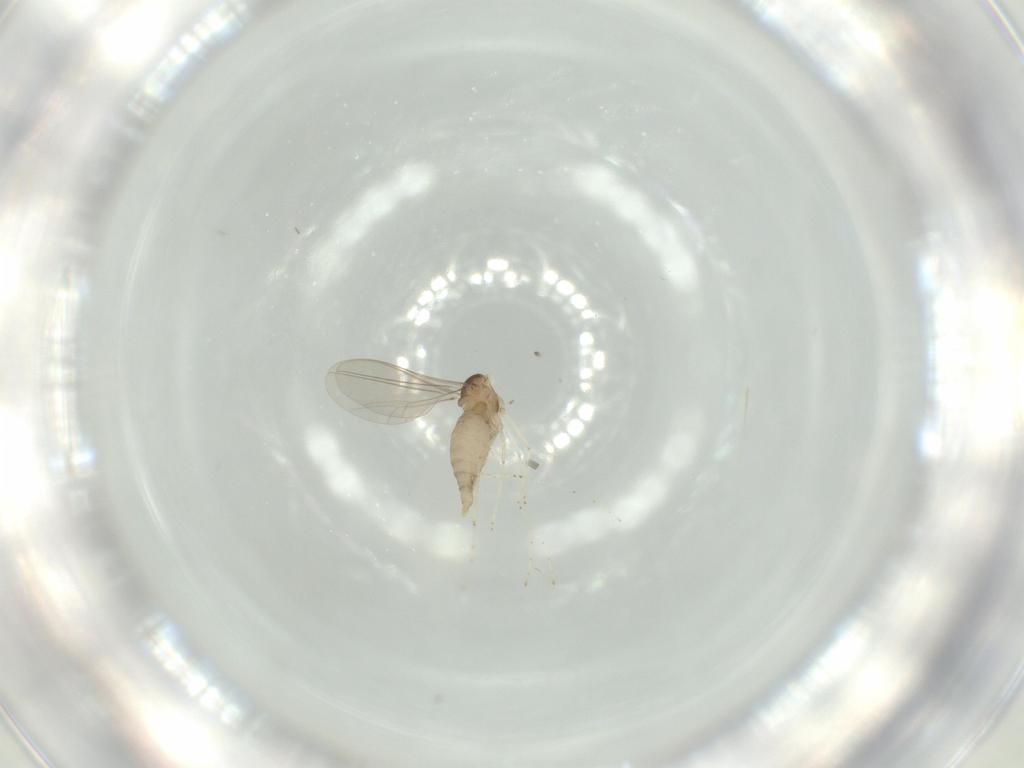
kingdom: Animalia
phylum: Arthropoda
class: Insecta
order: Diptera
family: Cecidomyiidae
